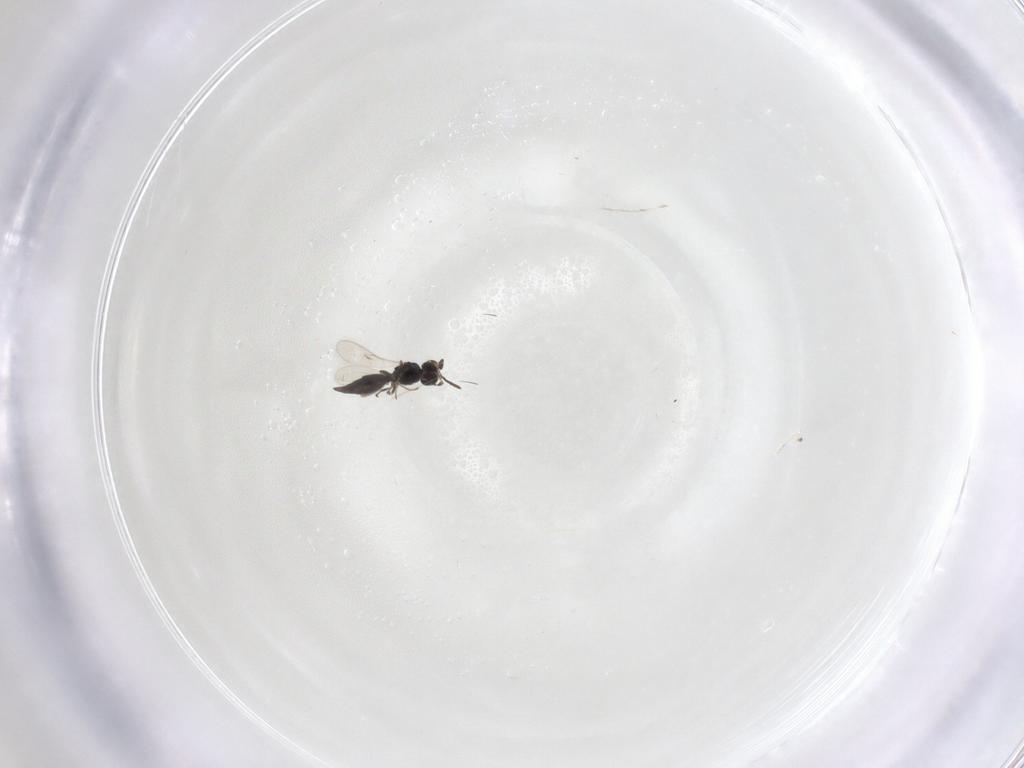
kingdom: Animalia
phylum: Arthropoda
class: Insecta
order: Hymenoptera
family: Scelionidae
